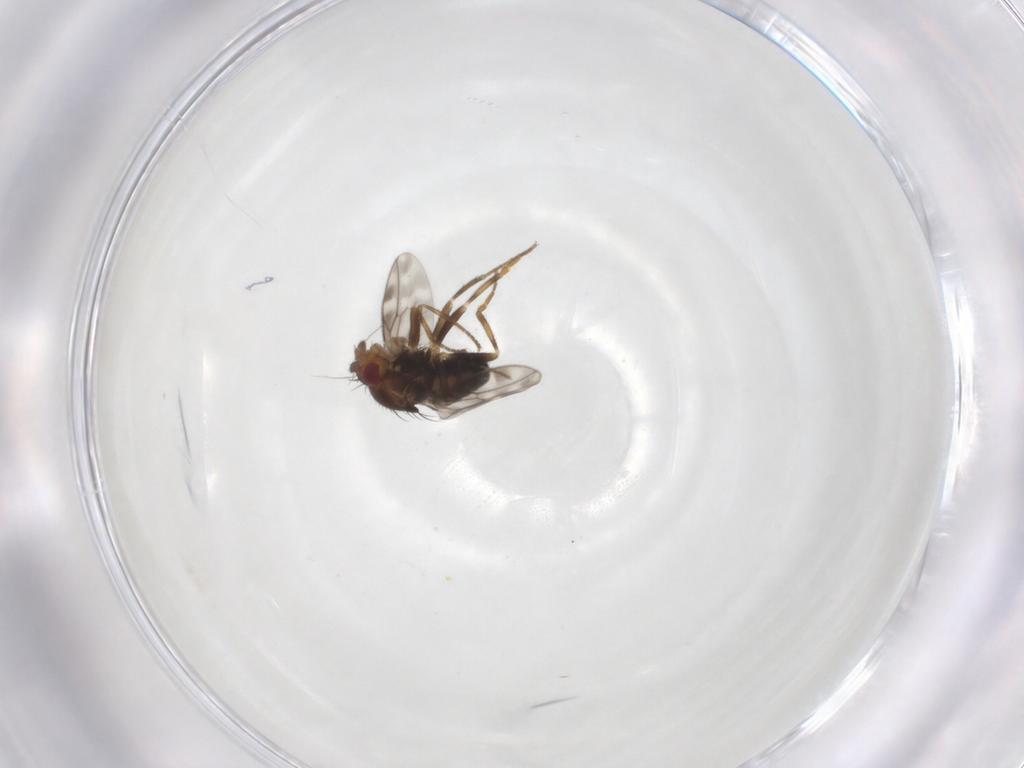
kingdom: Animalia
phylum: Arthropoda
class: Insecta
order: Diptera
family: Sphaeroceridae
